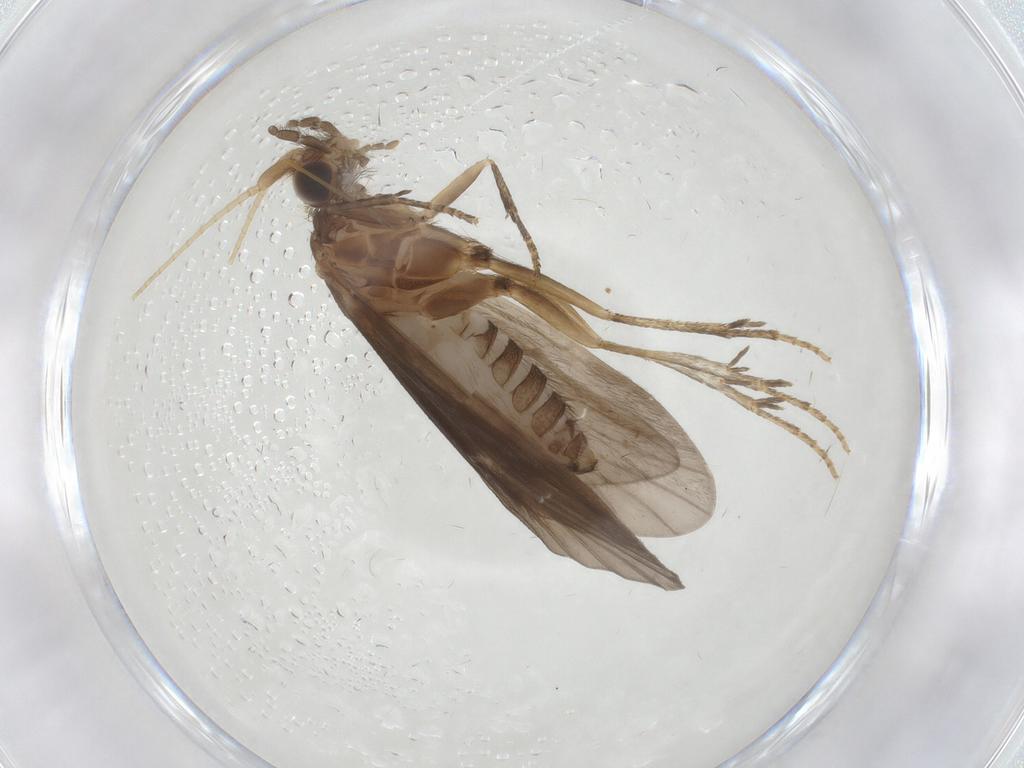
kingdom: Animalia
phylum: Arthropoda
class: Insecta
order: Trichoptera
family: Helicopsychidae
